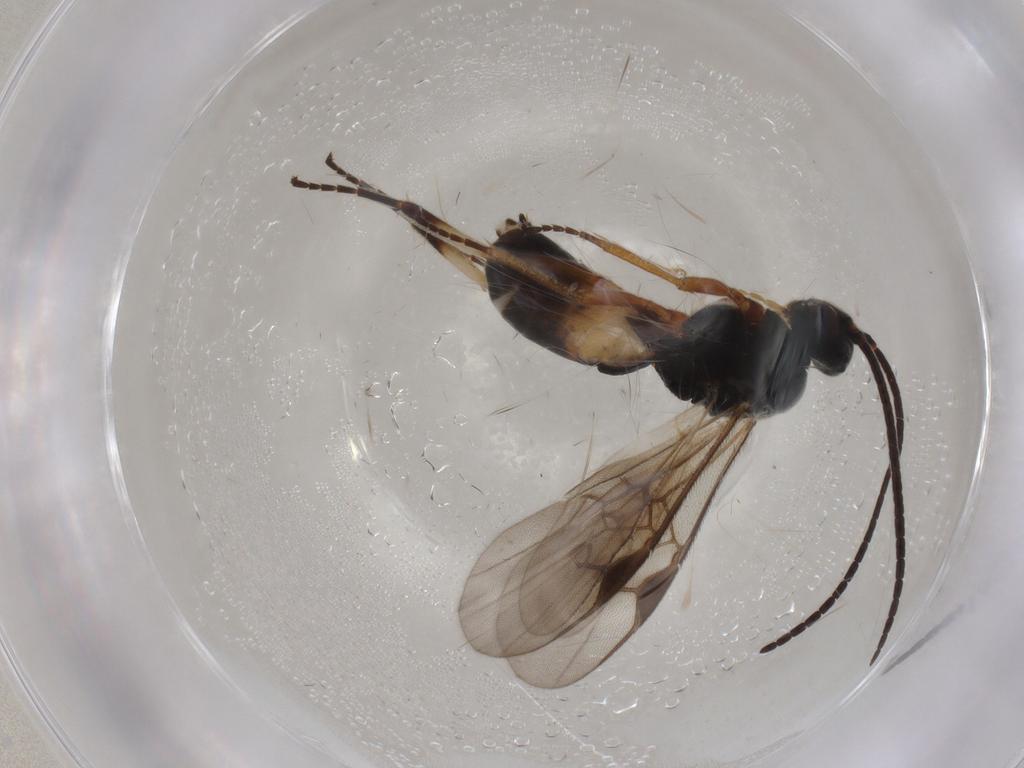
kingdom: Animalia
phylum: Arthropoda
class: Insecta
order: Hymenoptera
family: Braconidae
